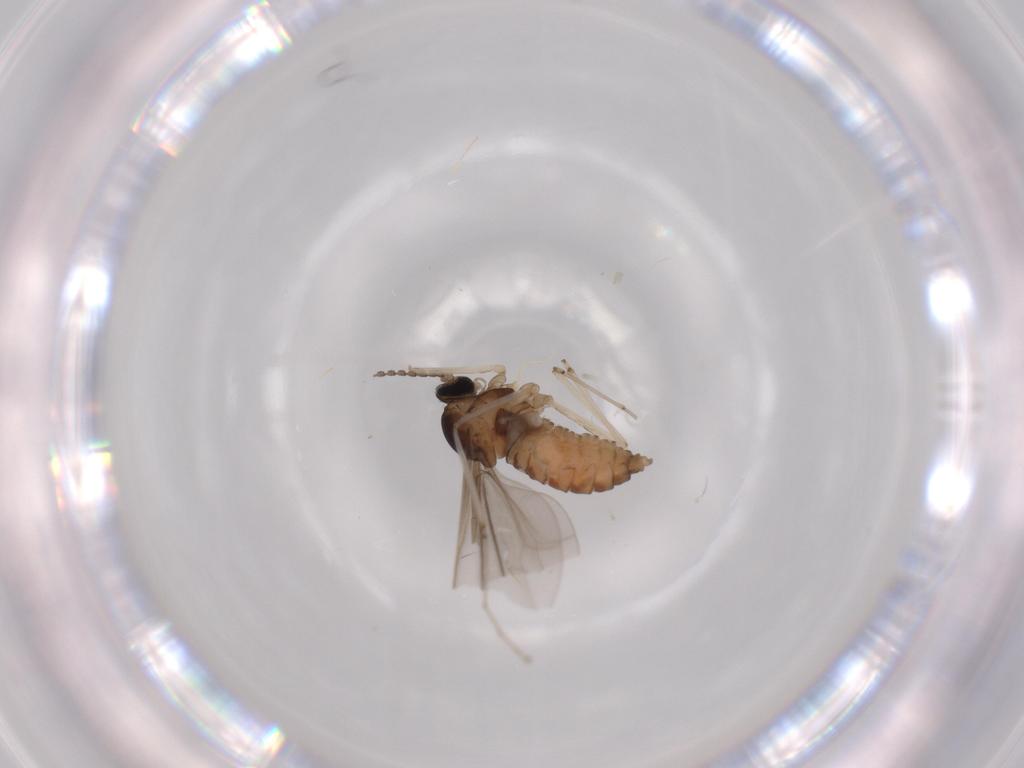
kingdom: Animalia
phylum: Arthropoda
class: Insecta
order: Diptera
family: Cecidomyiidae
